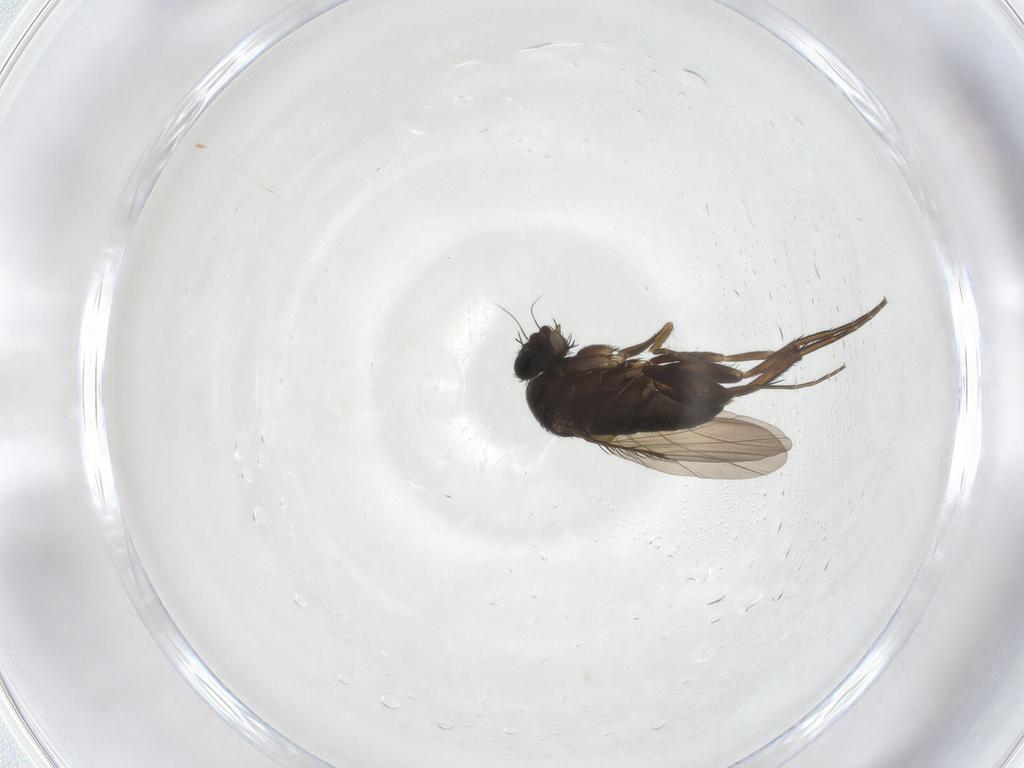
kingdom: Animalia
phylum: Arthropoda
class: Insecta
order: Diptera
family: Phoridae
